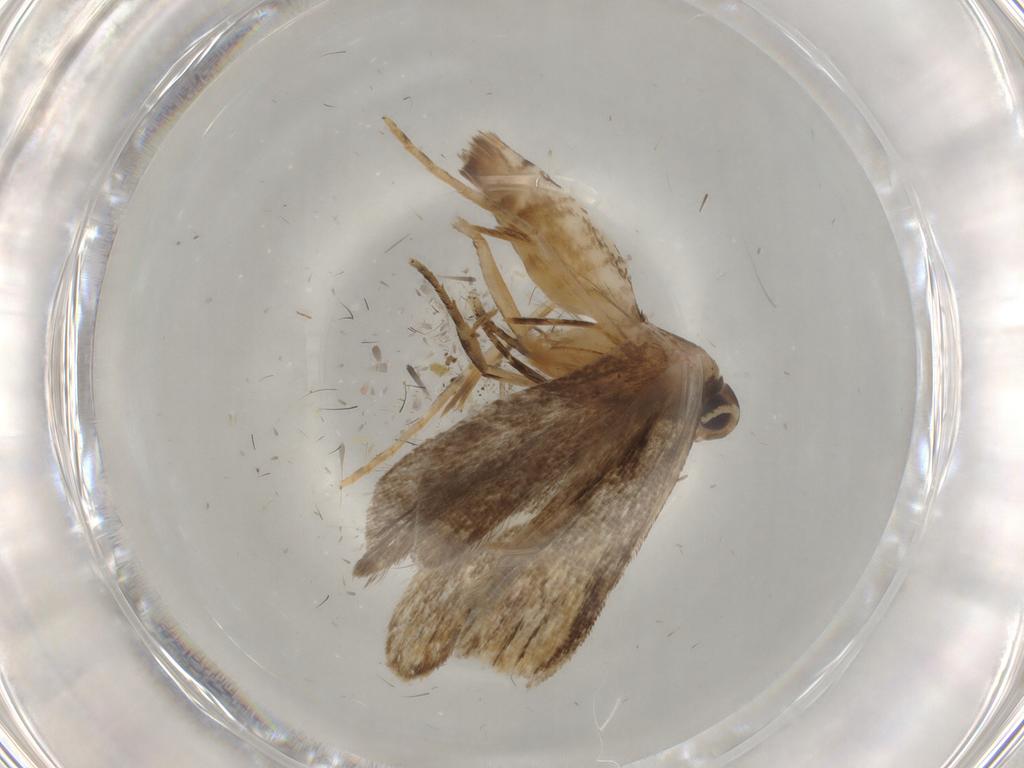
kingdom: Animalia
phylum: Arthropoda
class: Insecta
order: Lepidoptera
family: Gelechiidae
